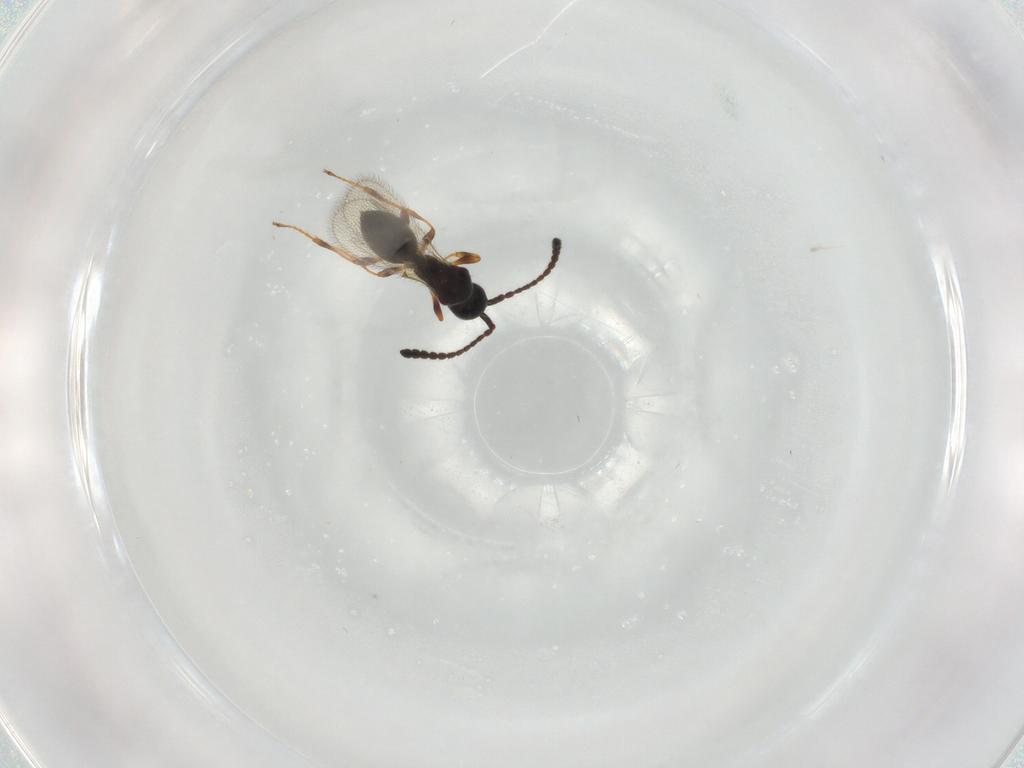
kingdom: Animalia
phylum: Arthropoda
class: Insecta
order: Hymenoptera
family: Diapriidae
